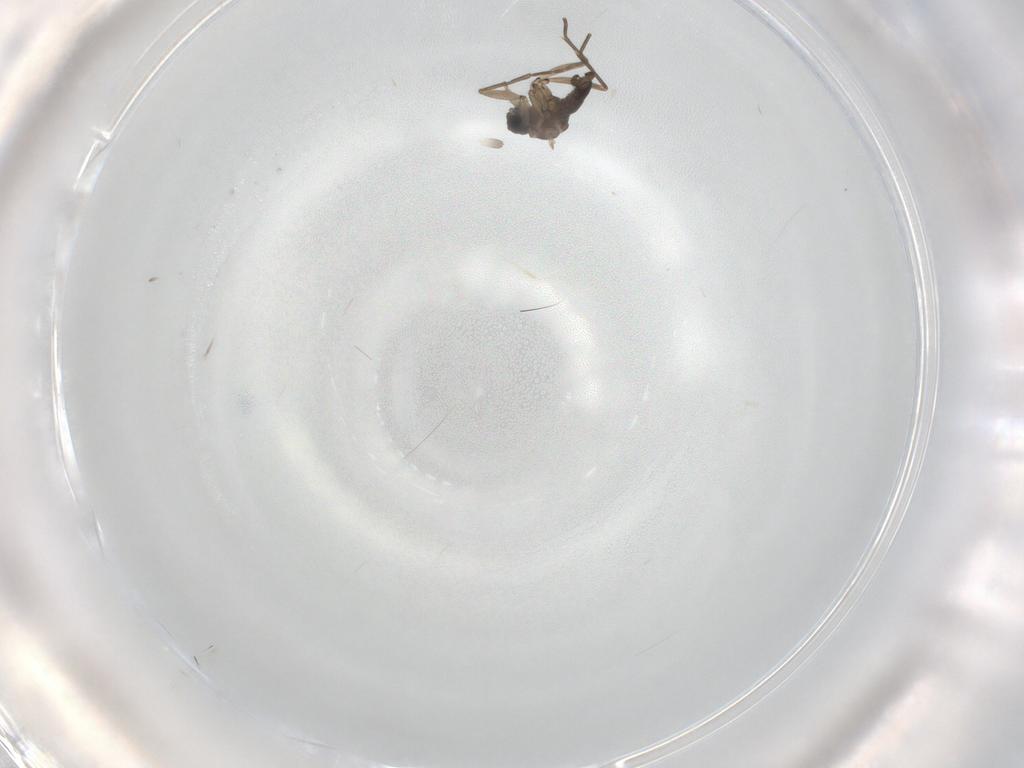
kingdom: Animalia
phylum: Arthropoda
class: Insecta
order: Diptera
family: Sciaridae
